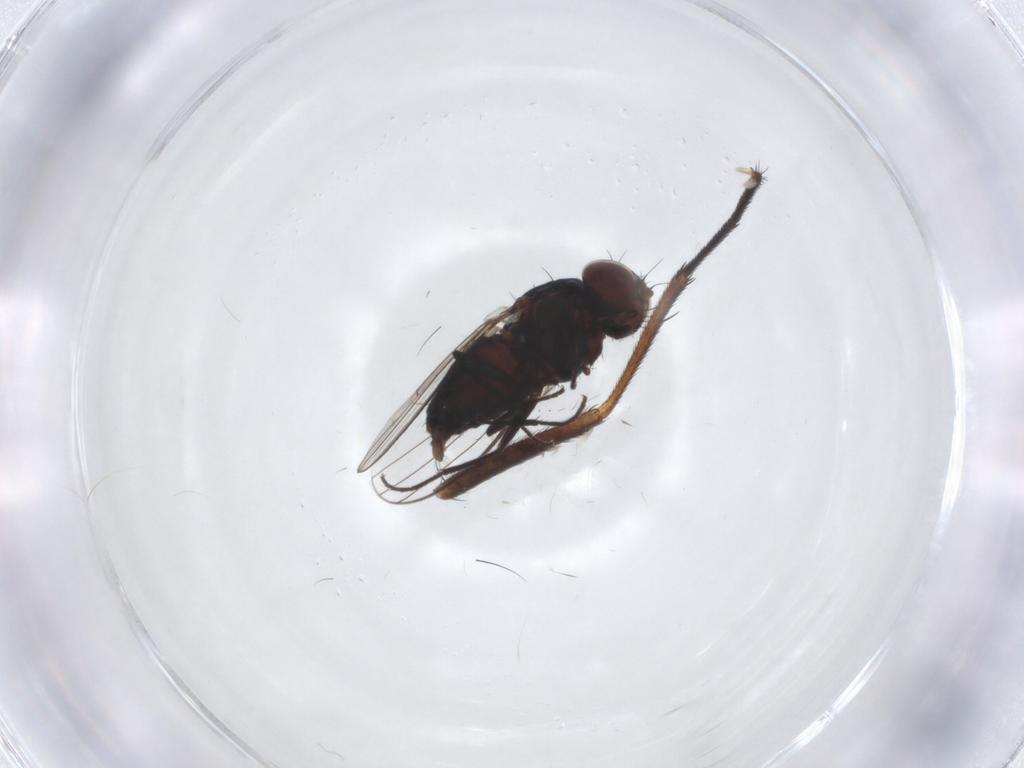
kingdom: Animalia
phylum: Arthropoda
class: Insecta
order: Diptera
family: Carnidae
